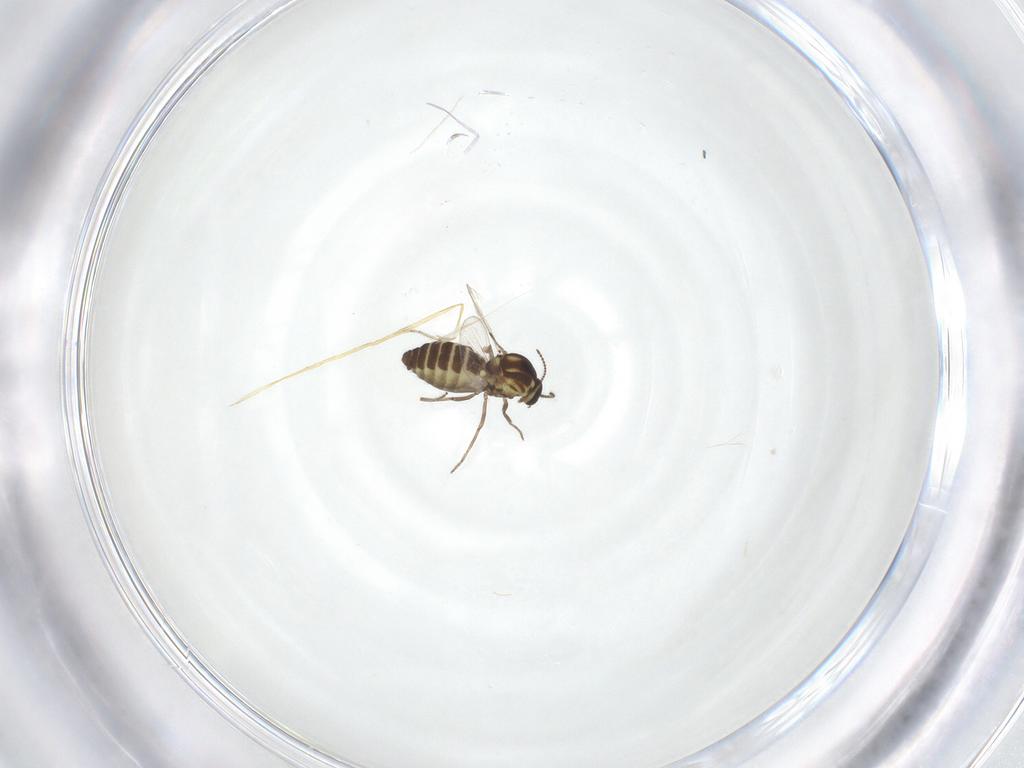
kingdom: Animalia
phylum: Arthropoda
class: Insecta
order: Diptera
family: Ceratopogonidae
